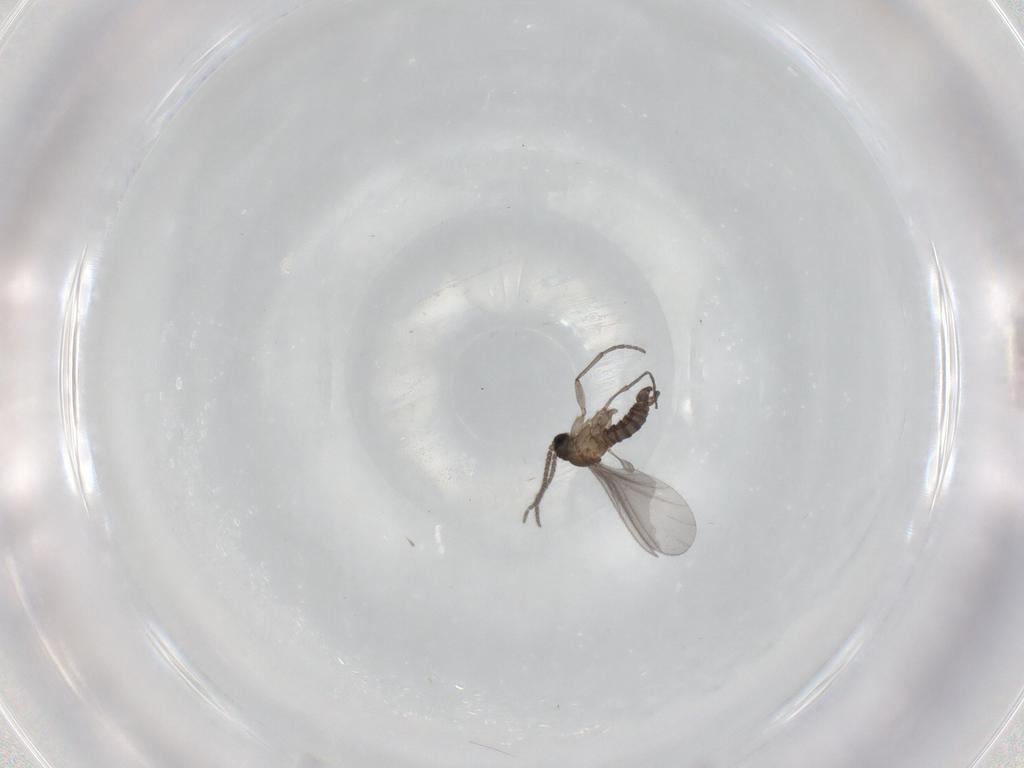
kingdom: Animalia
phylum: Arthropoda
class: Insecta
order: Diptera
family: Sciaridae
